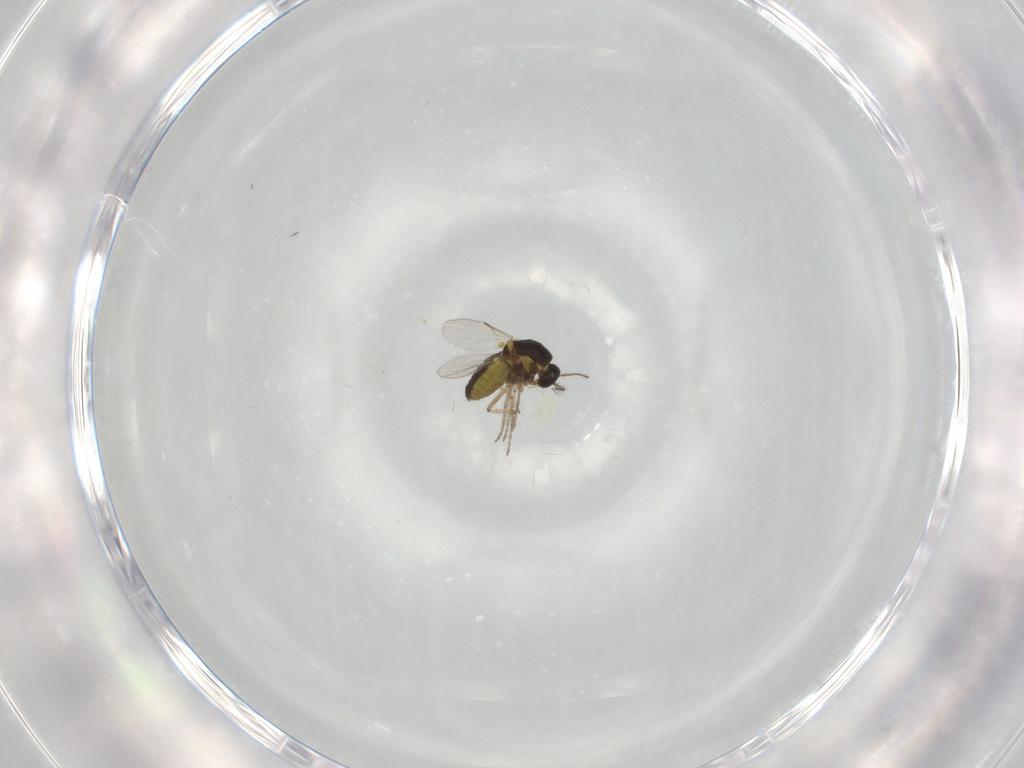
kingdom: Animalia
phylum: Arthropoda
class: Insecta
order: Diptera
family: Ceratopogonidae
